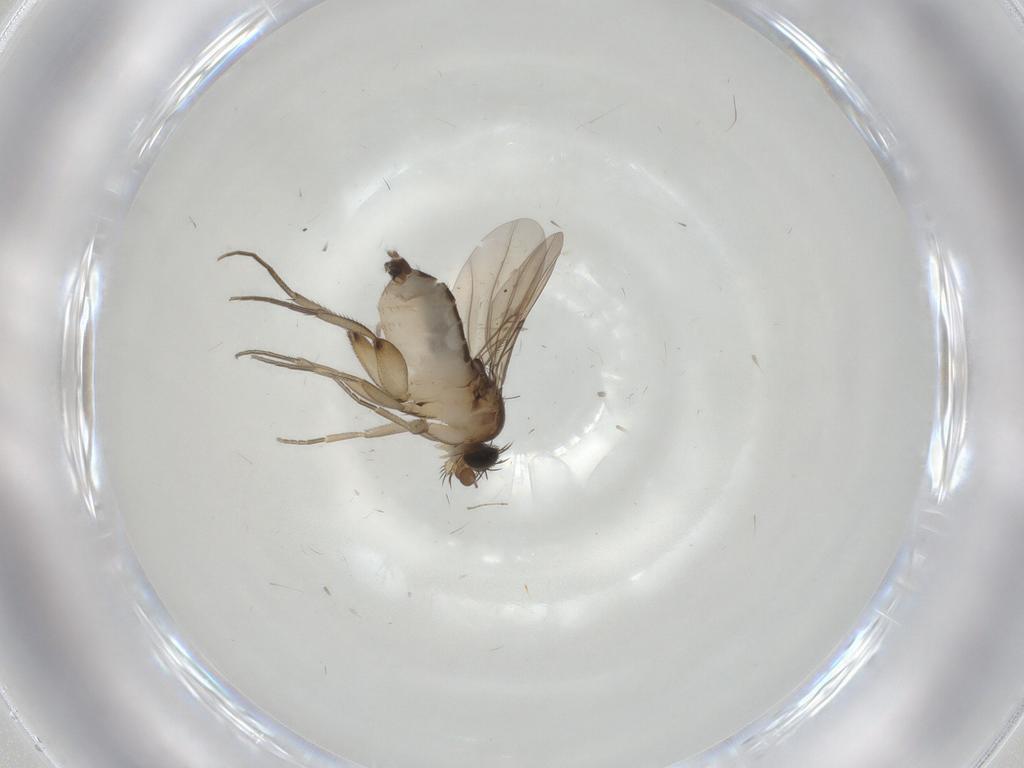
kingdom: Animalia
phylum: Arthropoda
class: Insecta
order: Diptera
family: Phoridae
